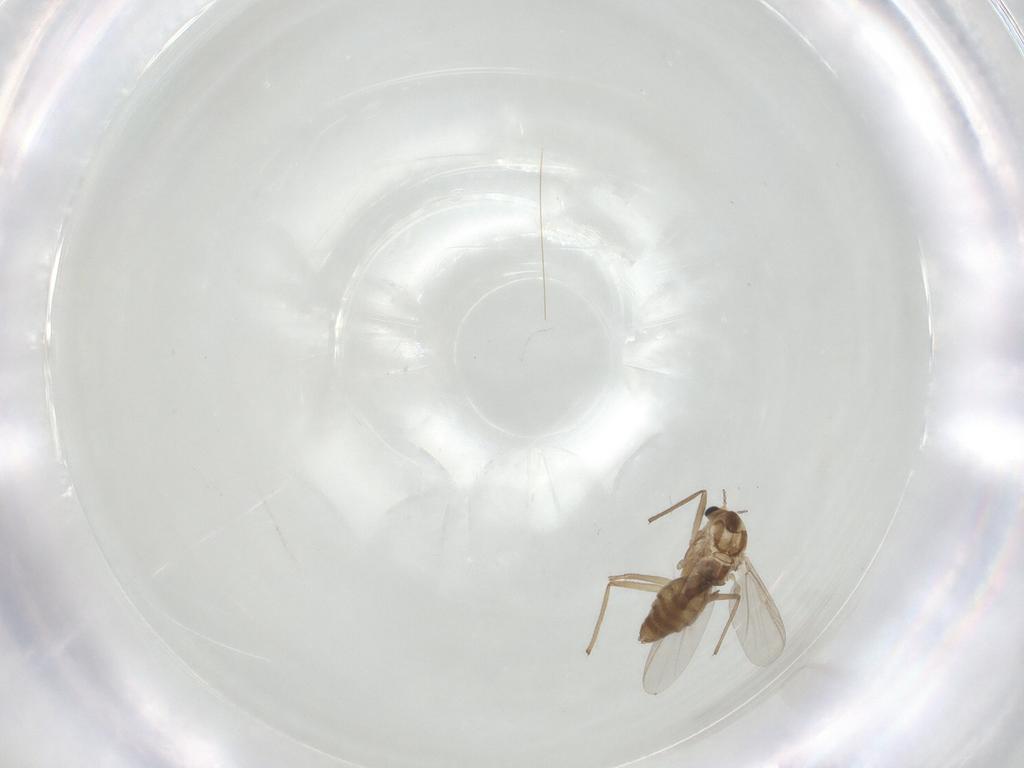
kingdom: Animalia
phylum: Arthropoda
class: Insecta
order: Diptera
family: Chironomidae
